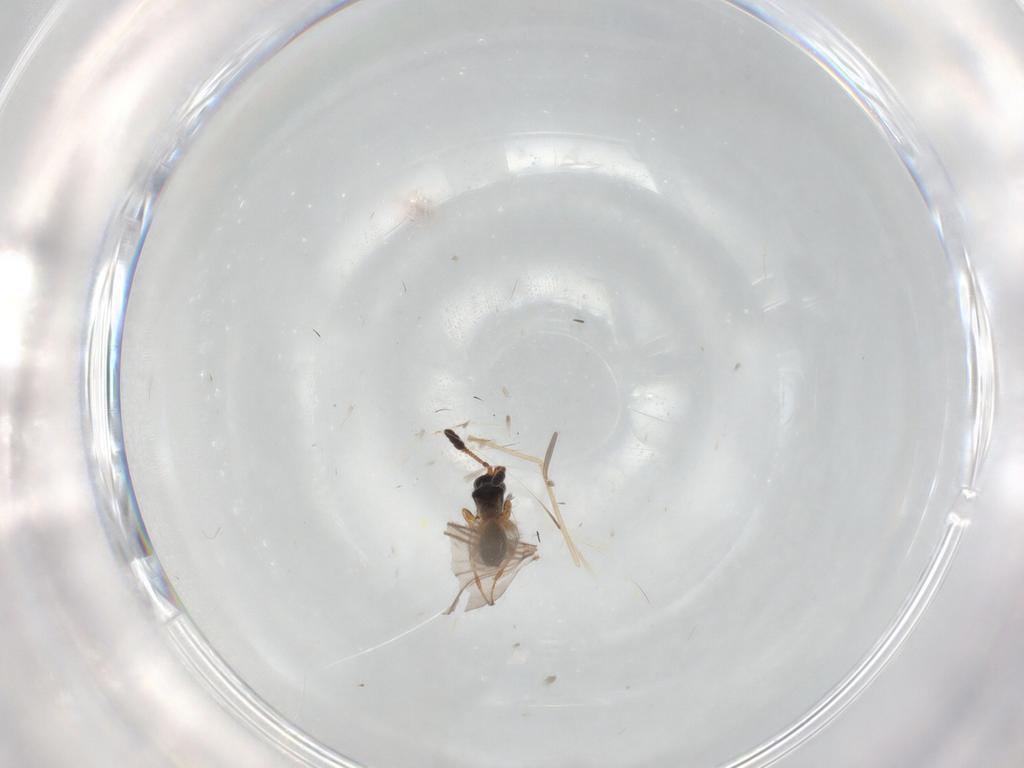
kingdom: Animalia
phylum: Arthropoda
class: Insecta
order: Hymenoptera
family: Diapriidae
